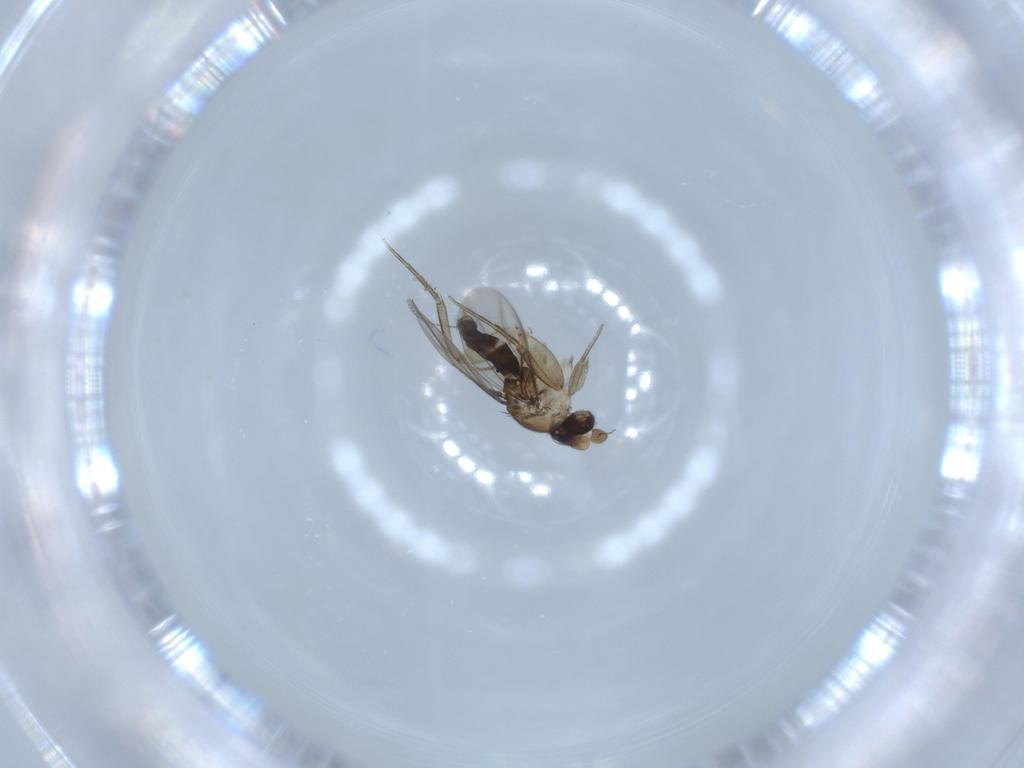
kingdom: Animalia
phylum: Arthropoda
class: Insecta
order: Diptera
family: Phoridae
